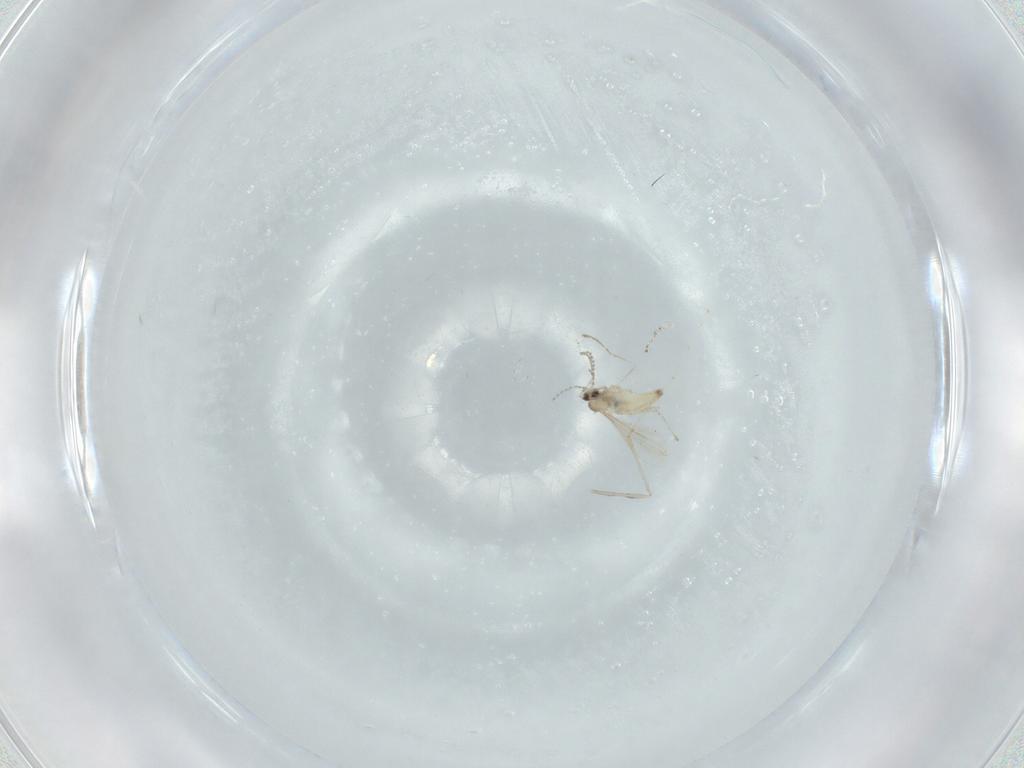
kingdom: Animalia
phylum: Arthropoda
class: Insecta
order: Diptera
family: Cecidomyiidae
